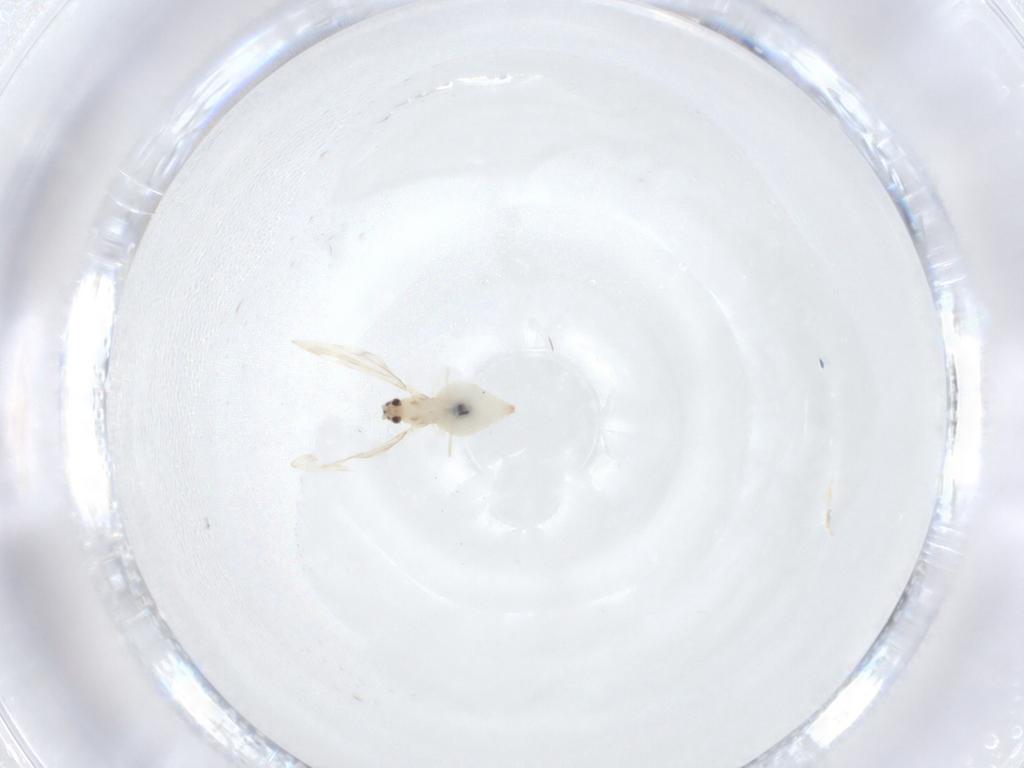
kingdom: Animalia
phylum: Arthropoda
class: Insecta
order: Diptera
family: Cecidomyiidae
